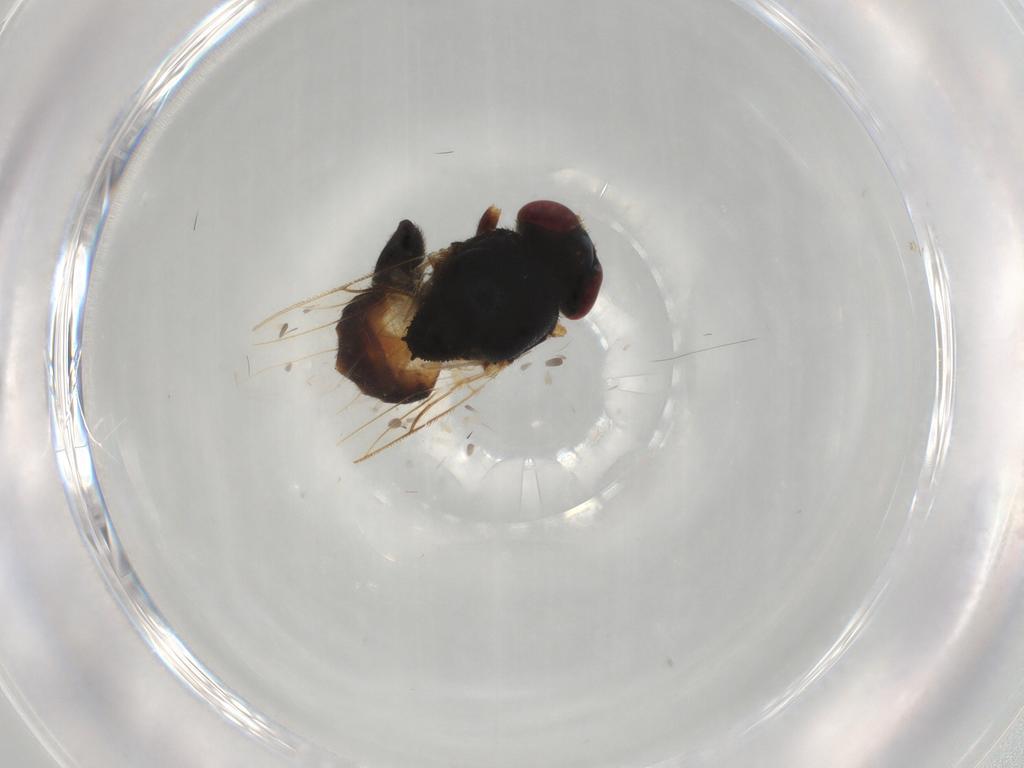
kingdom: Animalia
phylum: Arthropoda
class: Insecta
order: Diptera
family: Chloropidae
